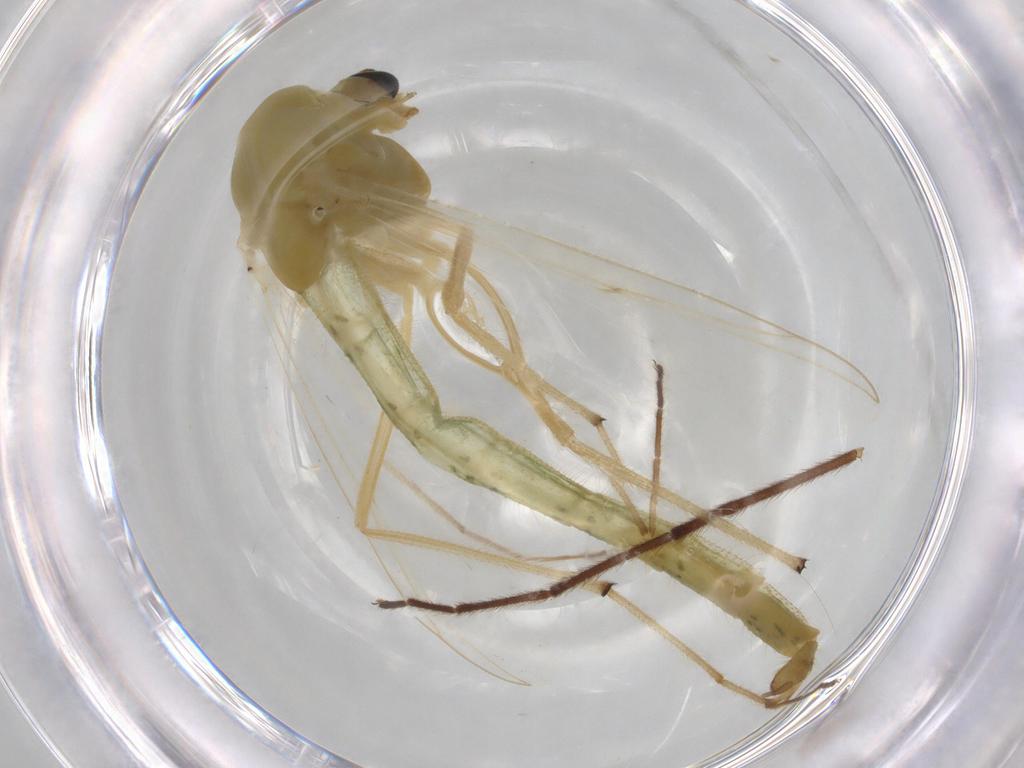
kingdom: Animalia
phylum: Arthropoda
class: Insecta
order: Diptera
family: Chironomidae
